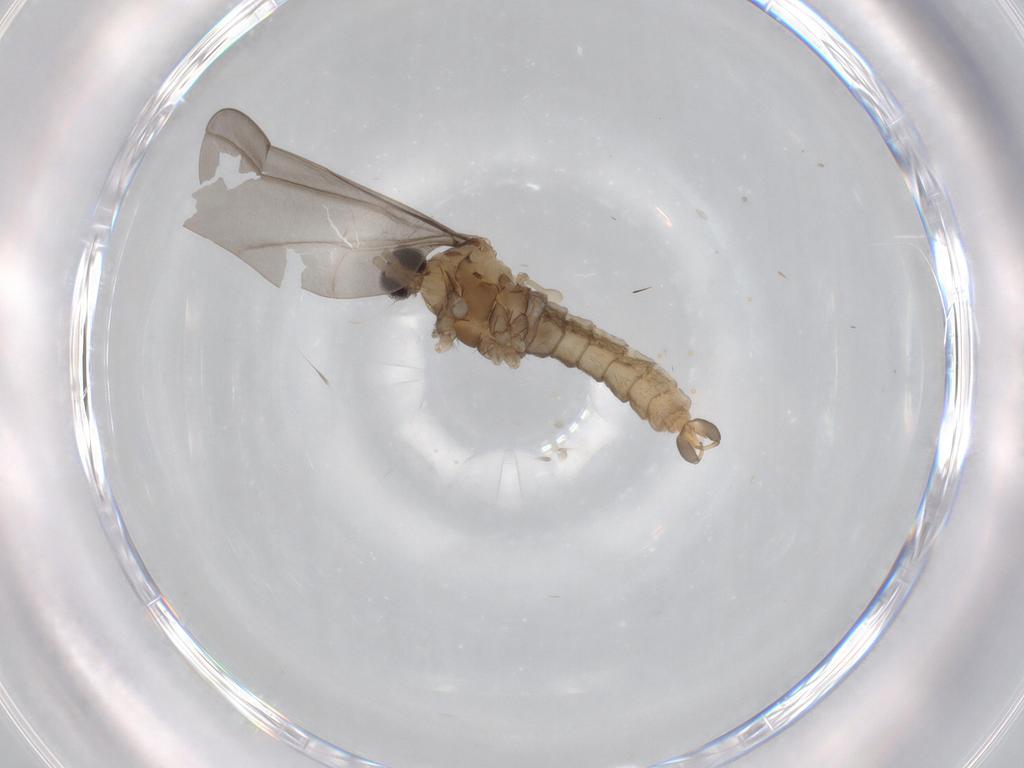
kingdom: Animalia
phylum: Arthropoda
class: Insecta
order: Diptera
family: Cecidomyiidae
